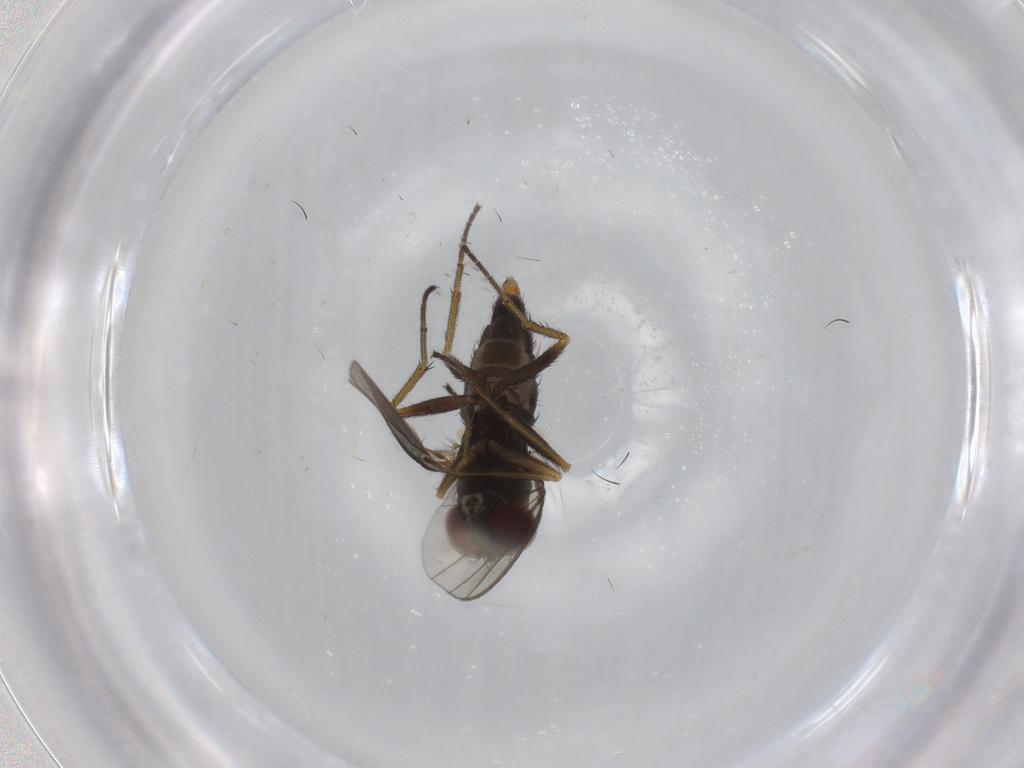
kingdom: Animalia
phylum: Arthropoda
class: Insecta
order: Diptera
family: Dolichopodidae
